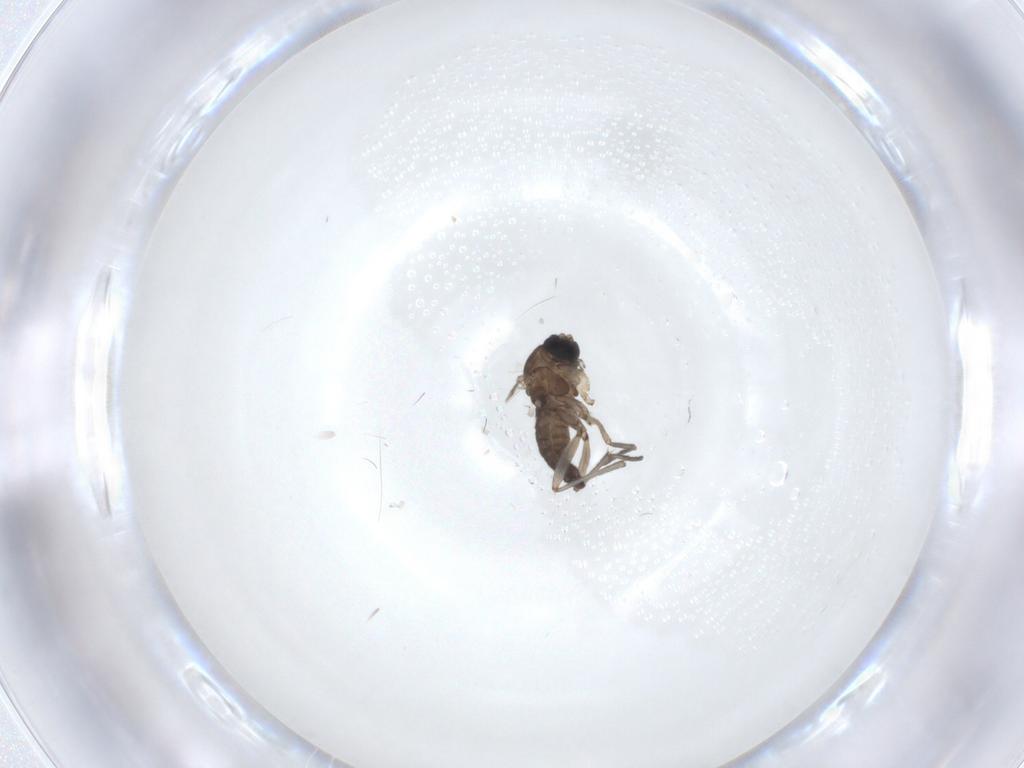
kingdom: Animalia
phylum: Arthropoda
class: Insecta
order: Diptera
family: Sciaridae
